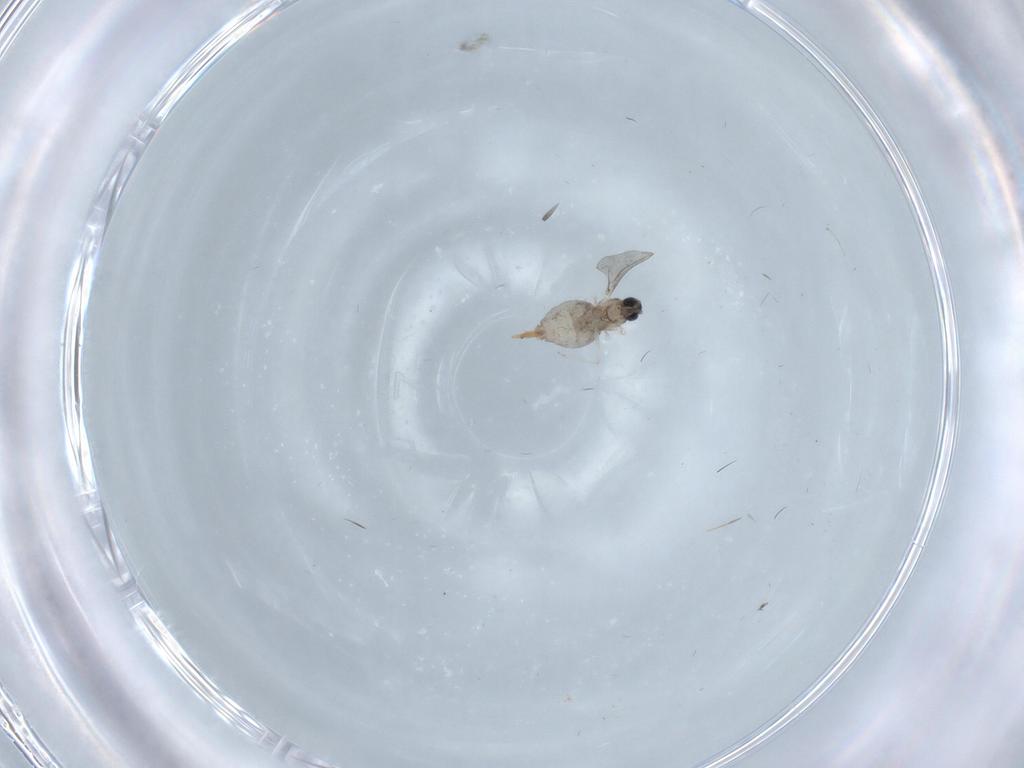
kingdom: Animalia
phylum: Arthropoda
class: Insecta
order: Diptera
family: Cecidomyiidae
